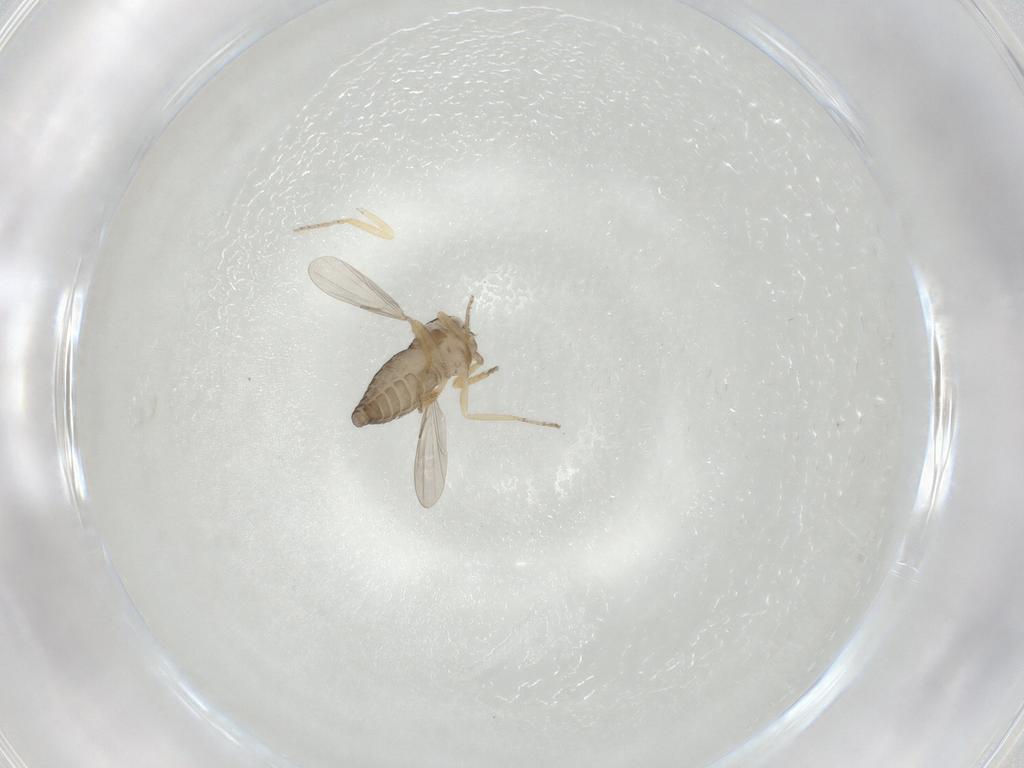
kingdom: Animalia
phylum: Arthropoda
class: Insecta
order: Diptera
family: Ceratopogonidae
